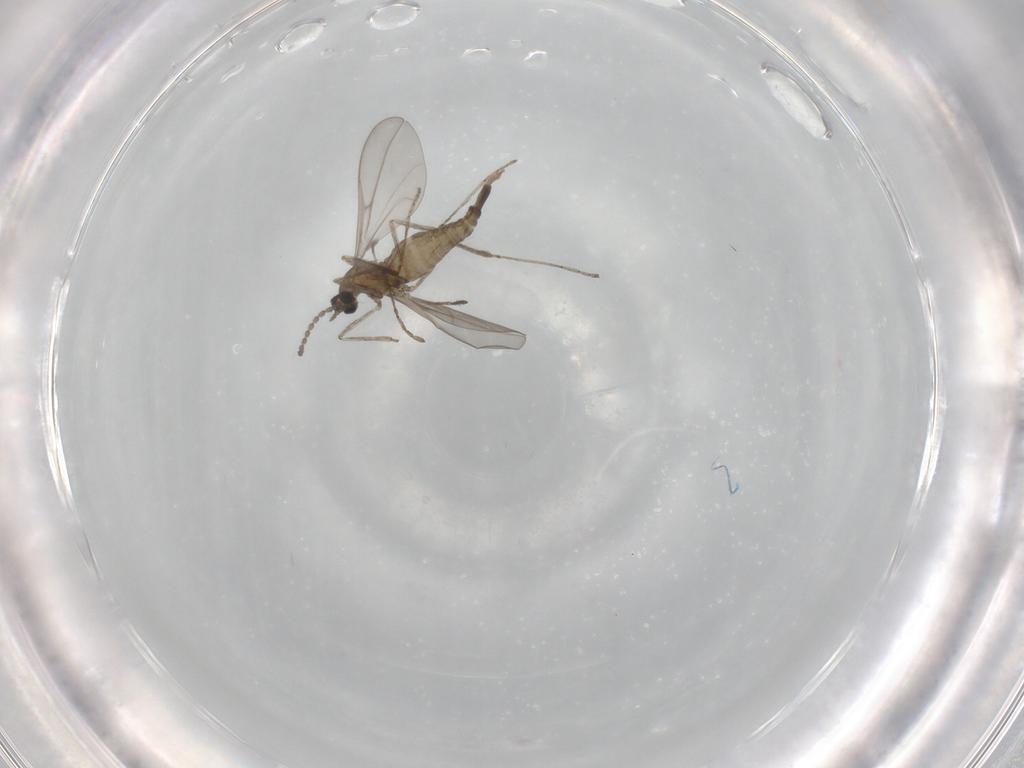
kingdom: Animalia
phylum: Arthropoda
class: Insecta
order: Diptera
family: Cecidomyiidae
